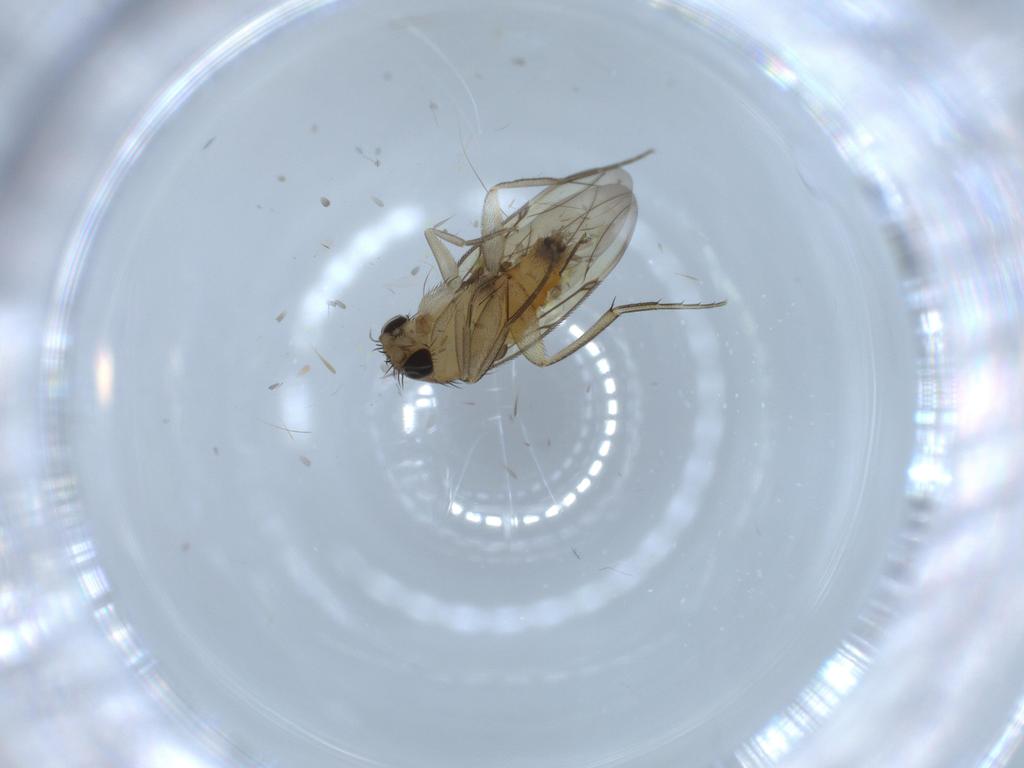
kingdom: Animalia
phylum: Arthropoda
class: Insecta
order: Diptera
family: Phoridae
